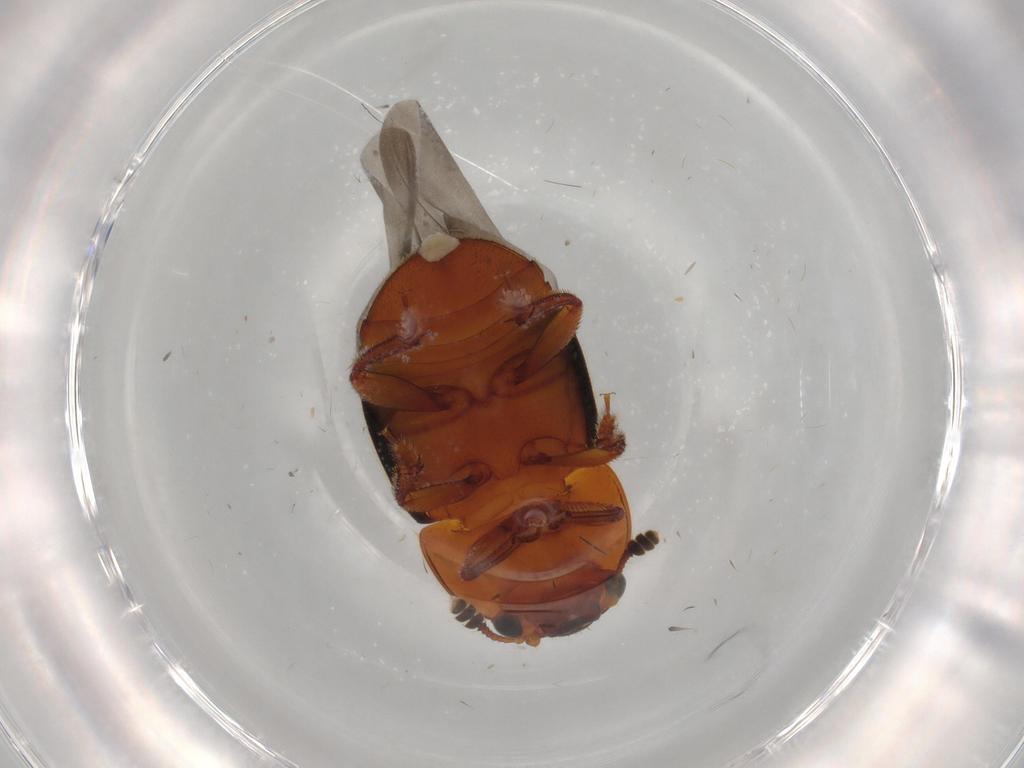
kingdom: Animalia
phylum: Arthropoda
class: Insecta
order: Coleoptera
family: Nitidulidae
